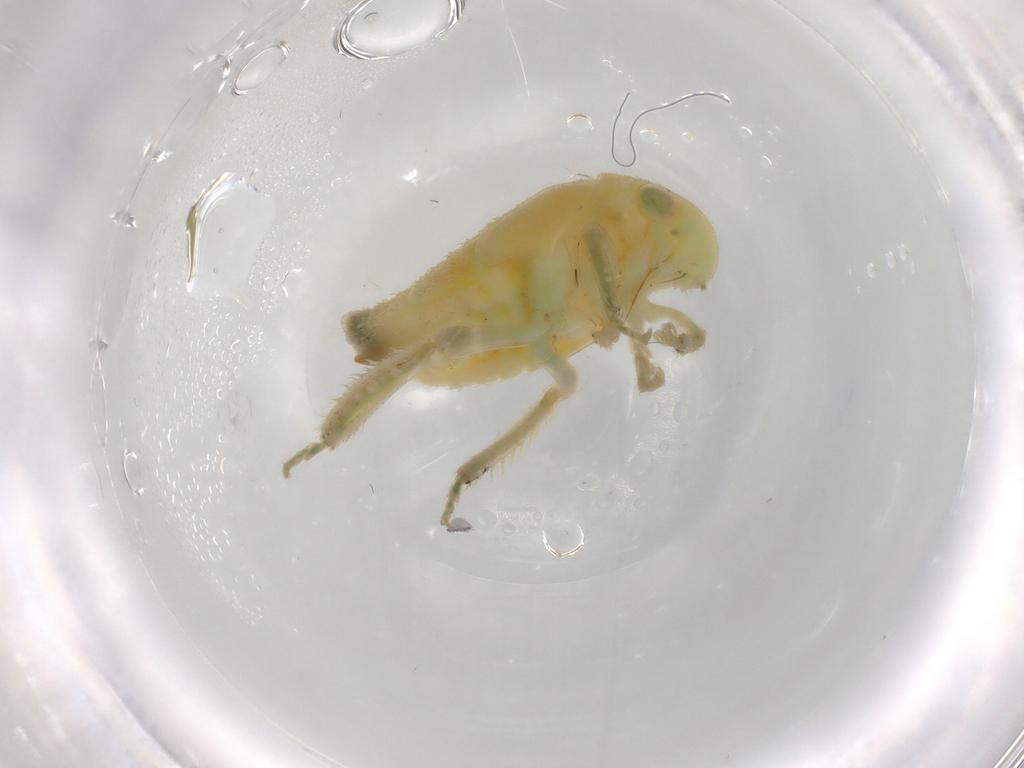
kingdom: Animalia
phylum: Arthropoda
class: Insecta
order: Hemiptera
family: Cicadellidae
